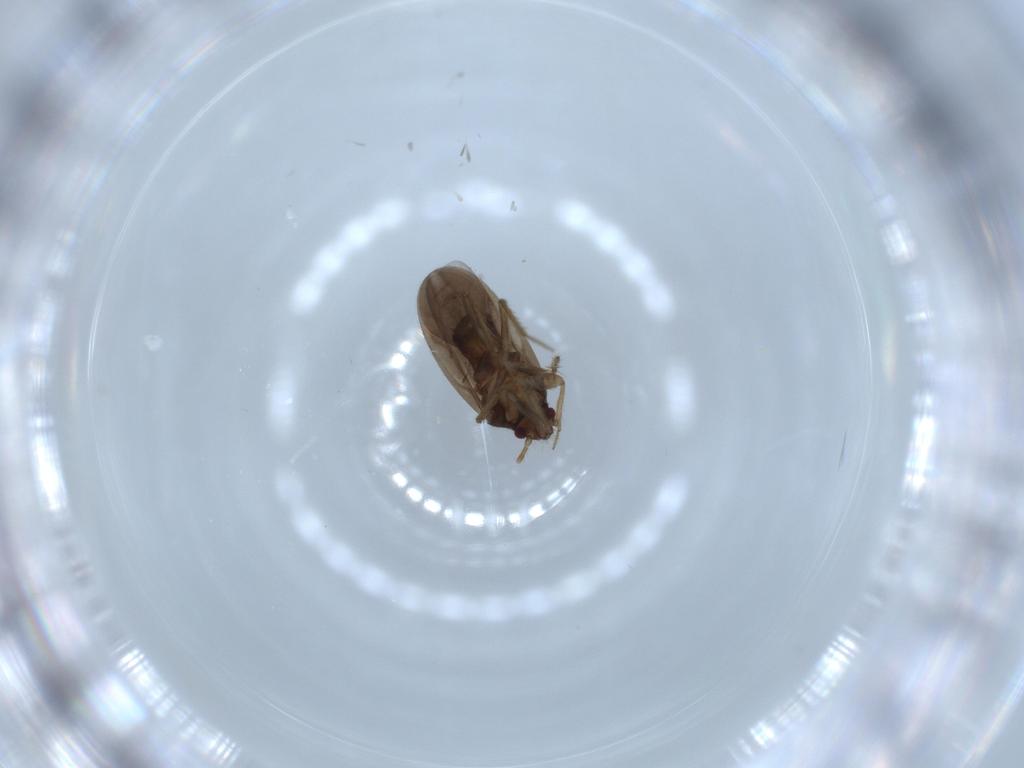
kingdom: Animalia
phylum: Arthropoda
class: Insecta
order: Hemiptera
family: Ceratocombidae
